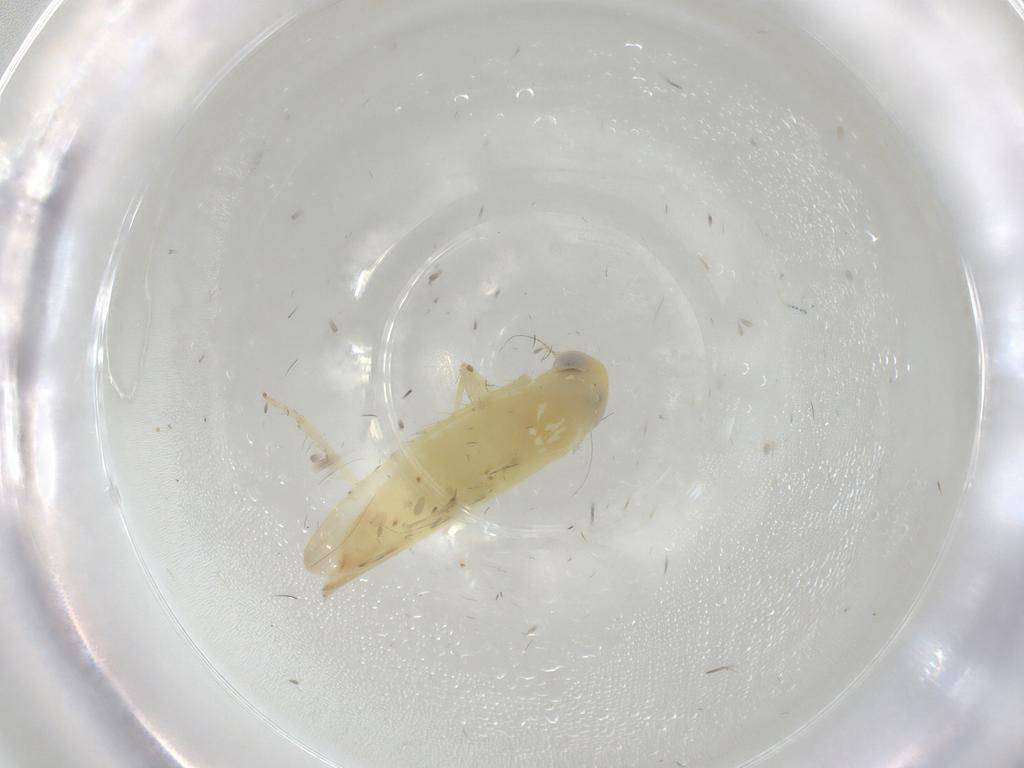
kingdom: Animalia
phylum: Arthropoda
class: Insecta
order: Hemiptera
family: Cicadellidae
